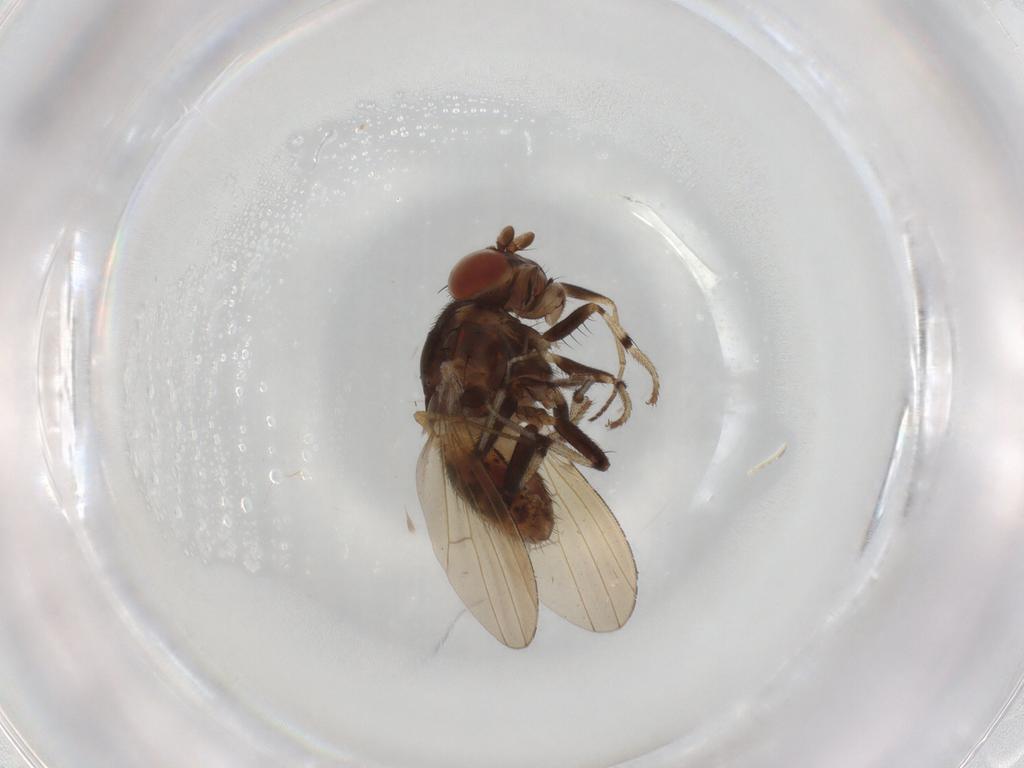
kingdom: Animalia
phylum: Arthropoda
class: Insecta
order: Diptera
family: Dolichopodidae
